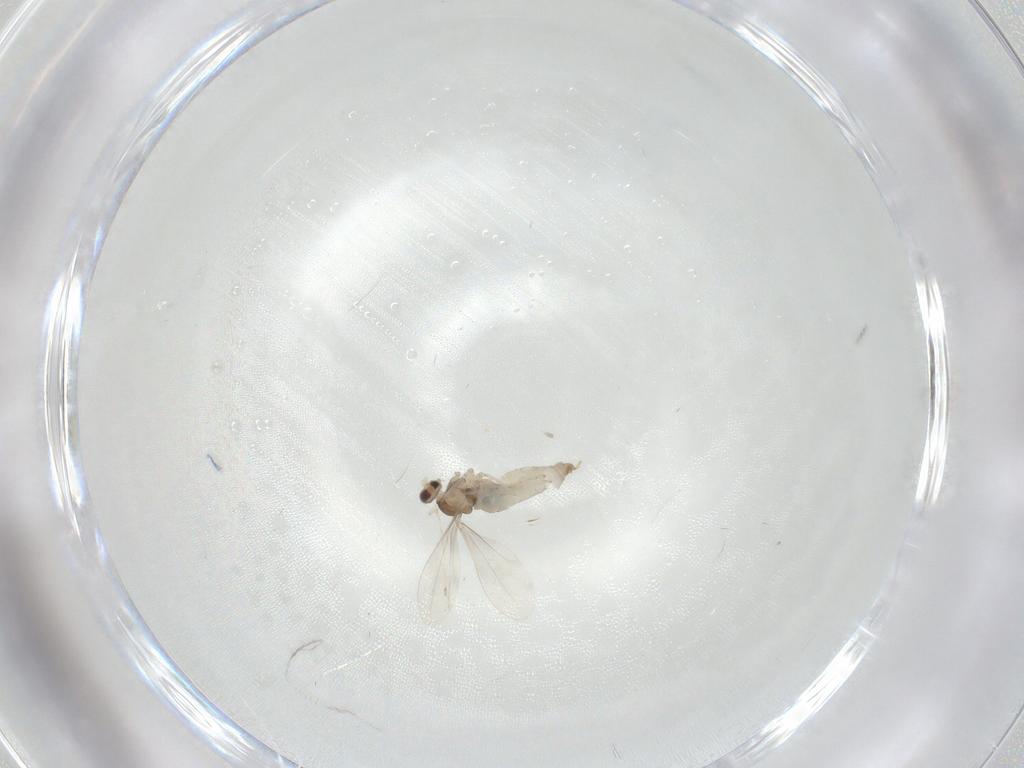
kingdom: Animalia
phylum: Arthropoda
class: Insecta
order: Diptera
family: Cecidomyiidae
